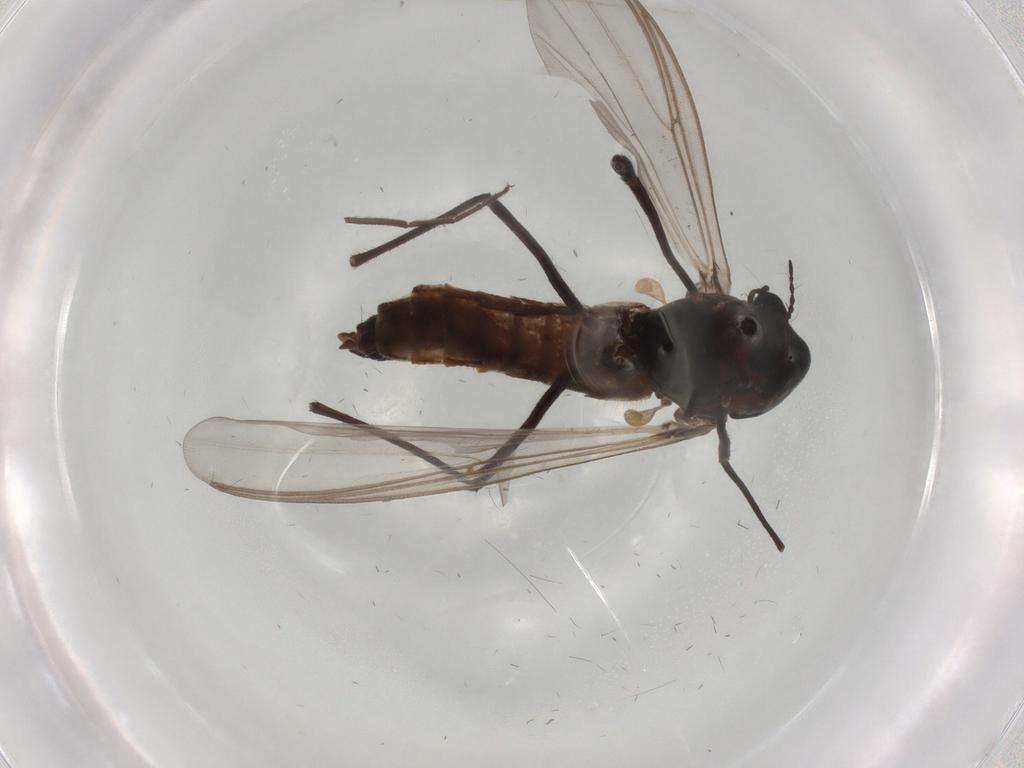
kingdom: Animalia
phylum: Arthropoda
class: Insecta
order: Diptera
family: Chironomidae
